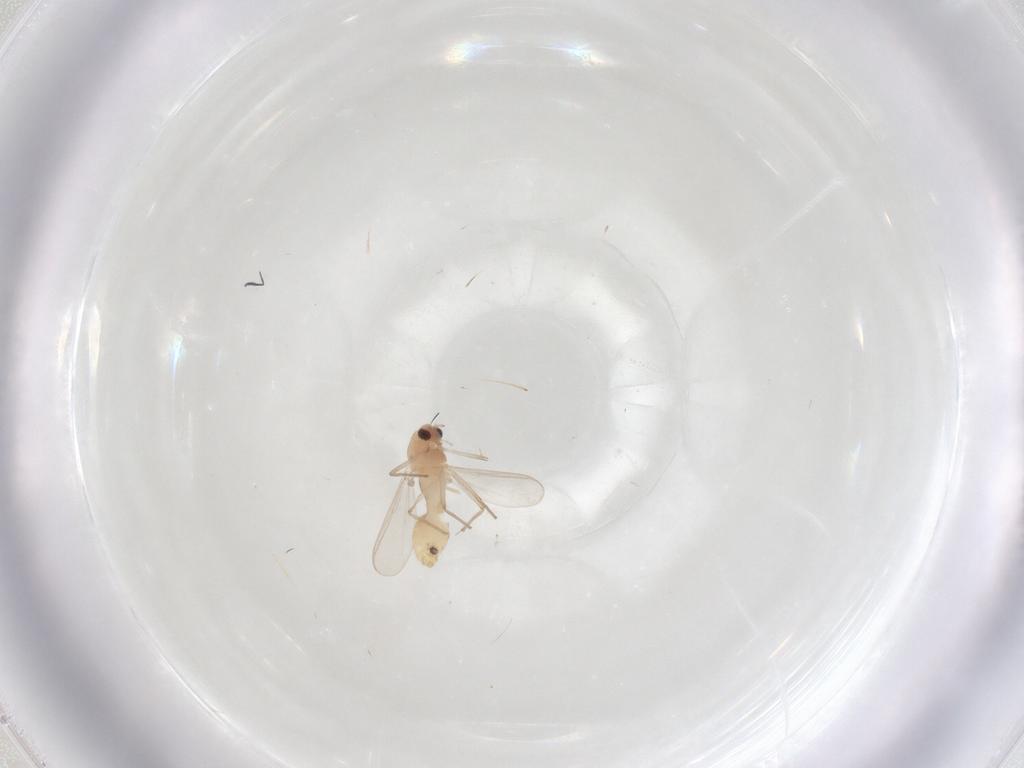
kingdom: Animalia
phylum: Arthropoda
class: Insecta
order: Diptera
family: Chironomidae
